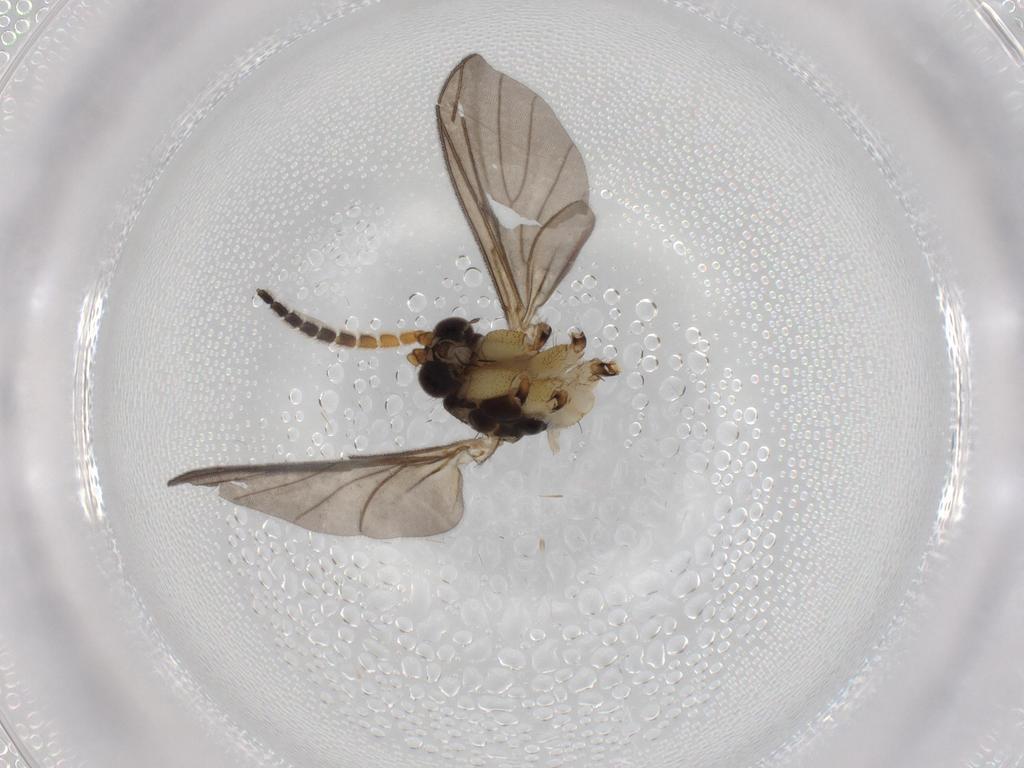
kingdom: Animalia
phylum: Arthropoda
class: Insecta
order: Diptera
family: Mycetophilidae
